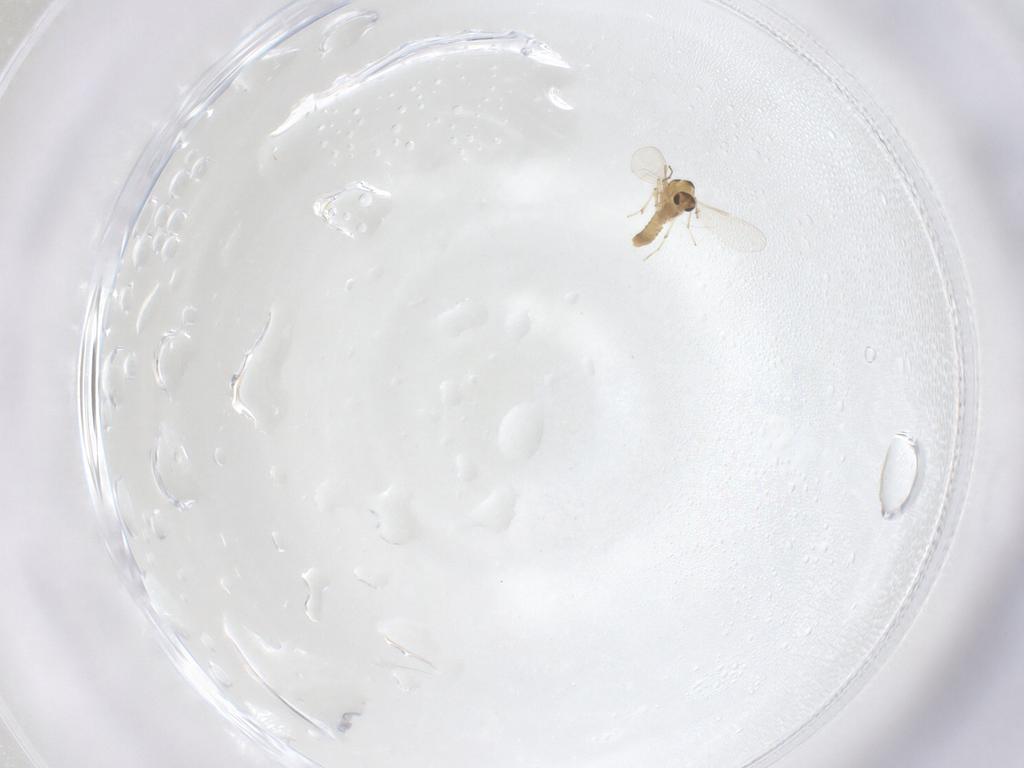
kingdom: Animalia
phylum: Arthropoda
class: Insecta
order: Diptera
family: Chironomidae
